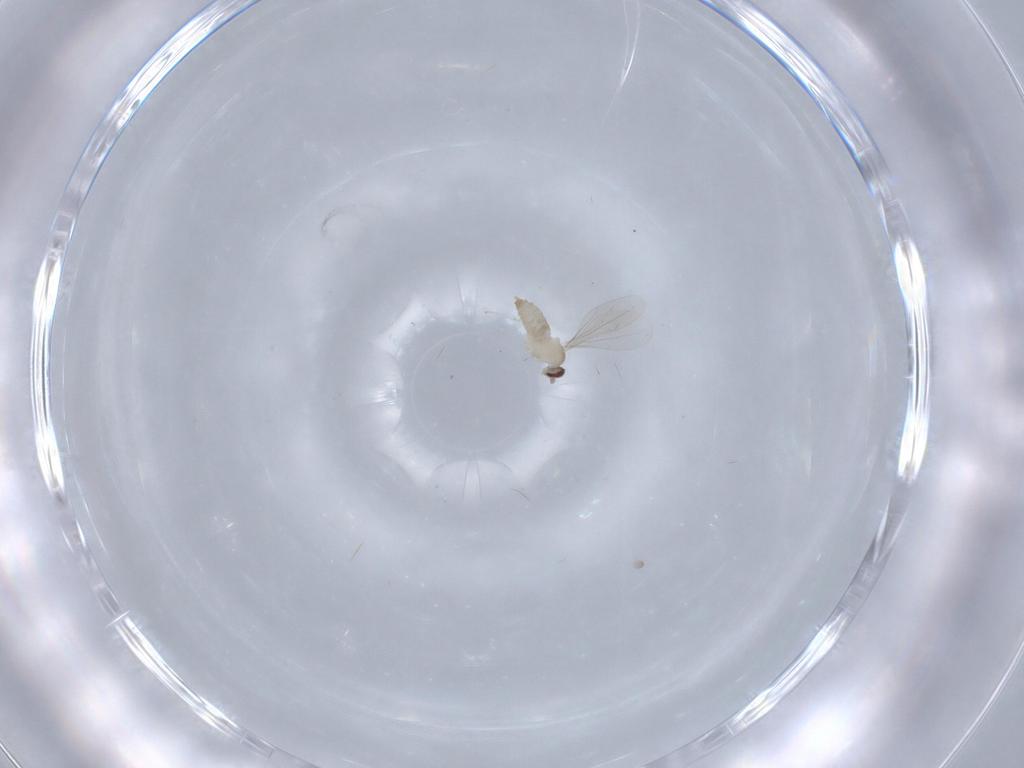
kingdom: Animalia
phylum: Arthropoda
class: Insecta
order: Diptera
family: Cecidomyiidae
